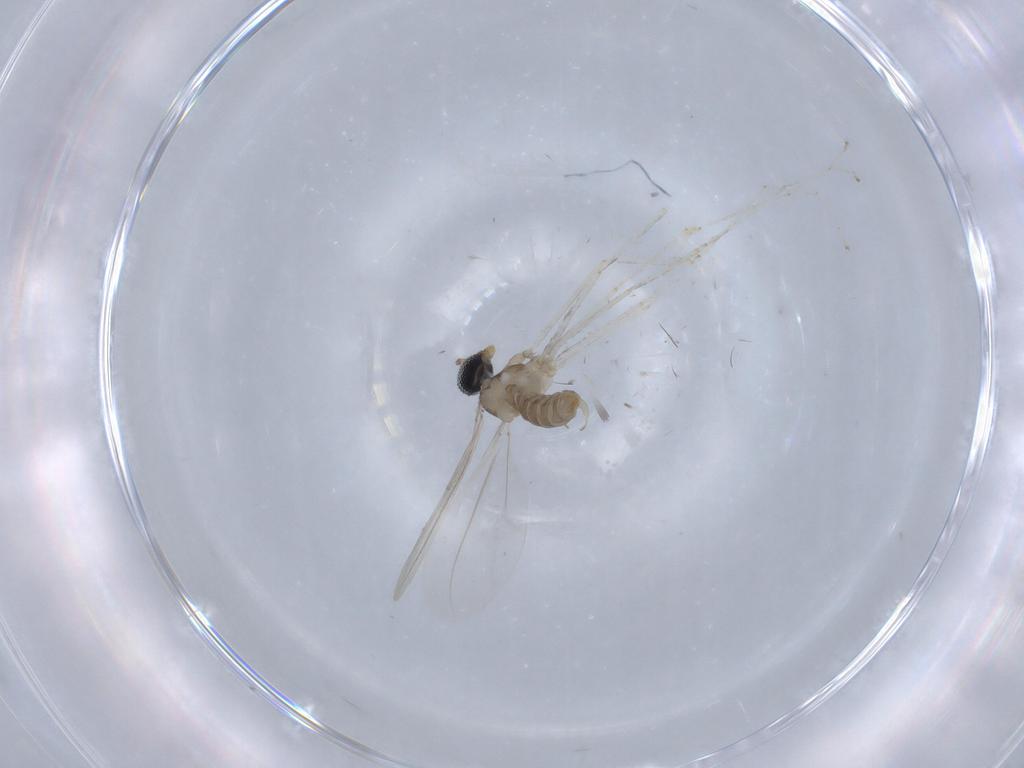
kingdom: Animalia
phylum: Arthropoda
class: Insecta
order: Diptera
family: Cecidomyiidae
